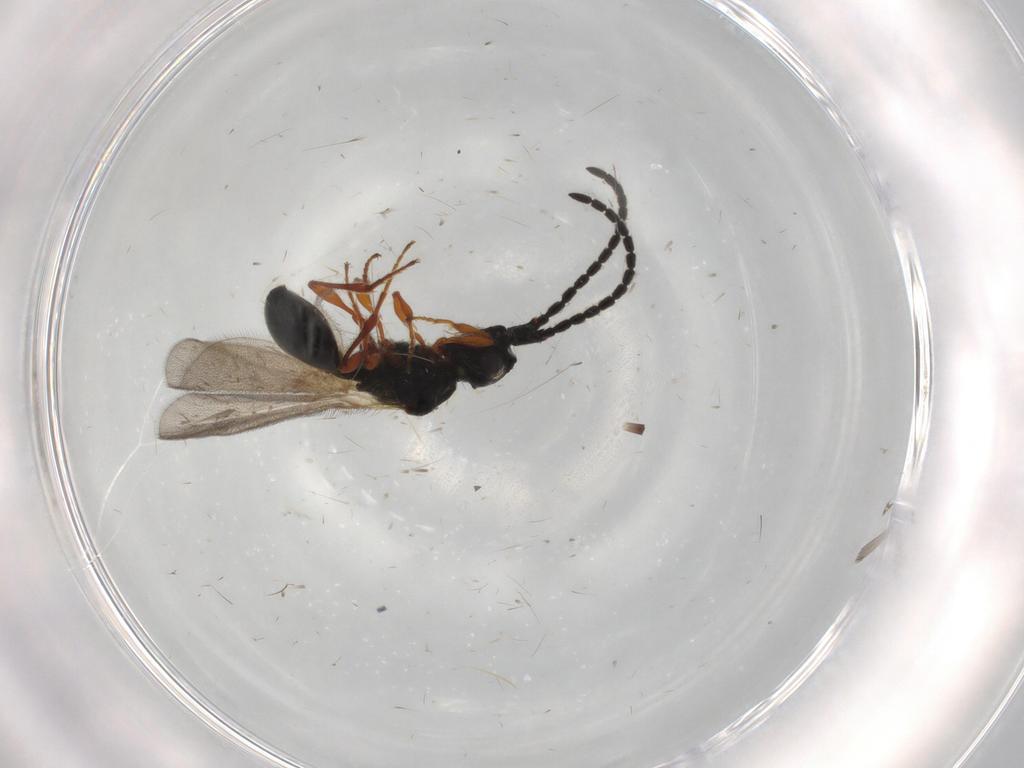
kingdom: Animalia
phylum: Arthropoda
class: Insecta
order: Hymenoptera
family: Diapriidae
